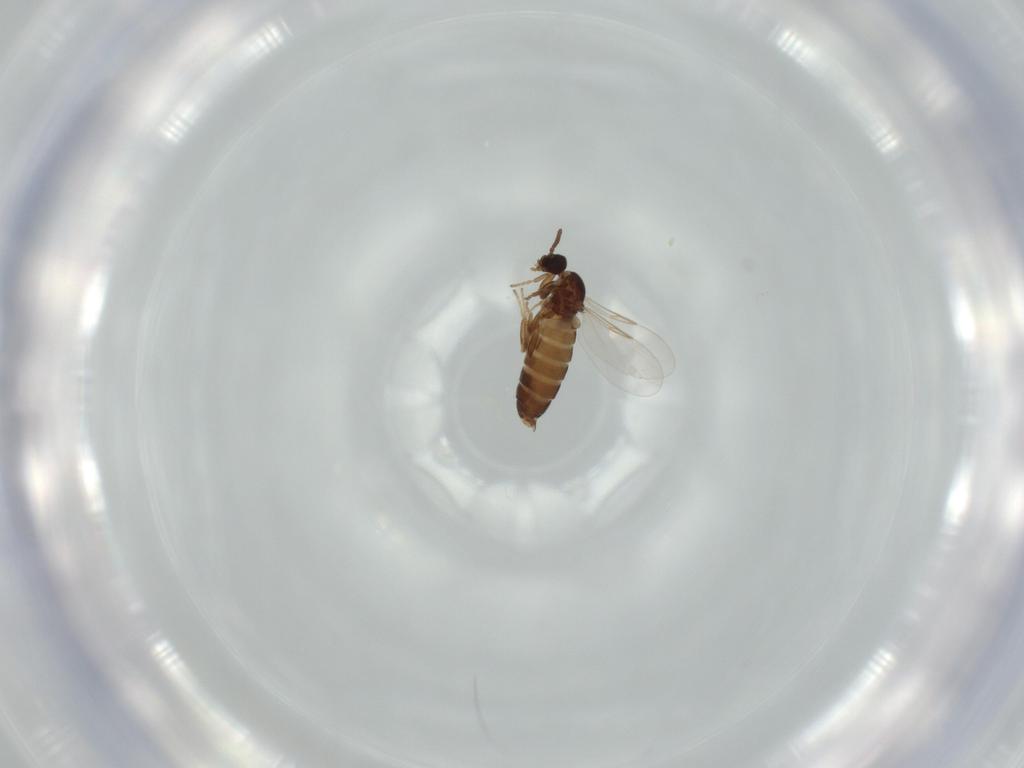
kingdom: Animalia
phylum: Arthropoda
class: Insecta
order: Diptera
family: Scatopsidae
